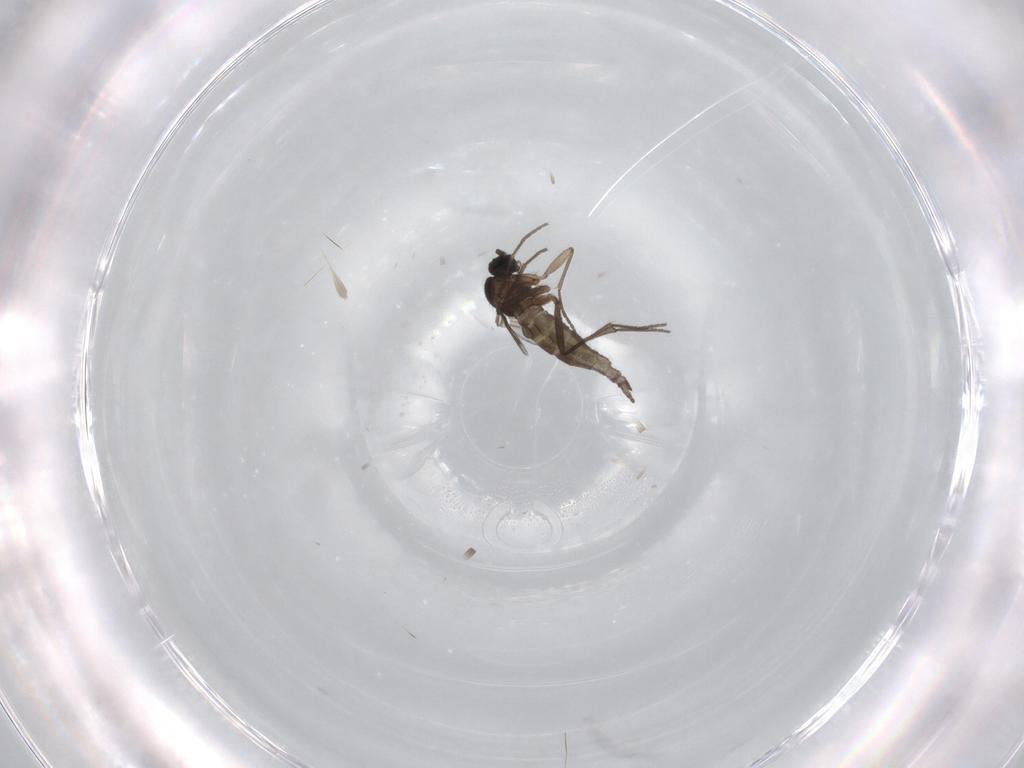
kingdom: Animalia
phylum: Arthropoda
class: Insecta
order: Diptera
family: Sciaridae
